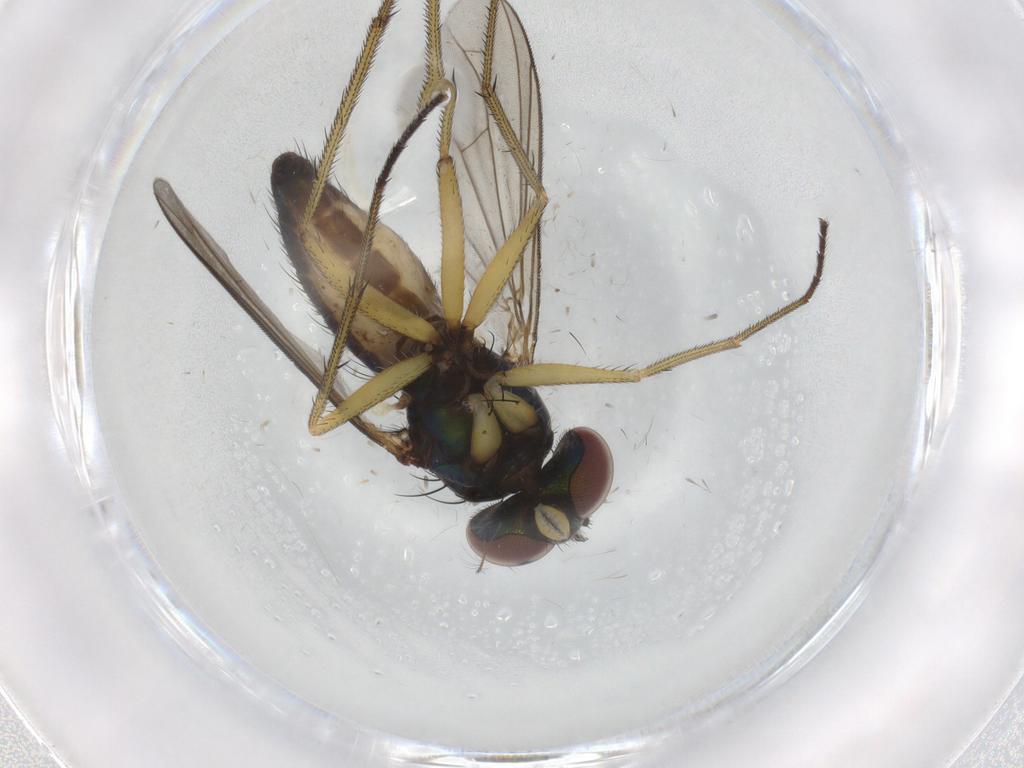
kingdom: Animalia
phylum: Arthropoda
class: Insecta
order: Diptera
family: Dolichopodidae
